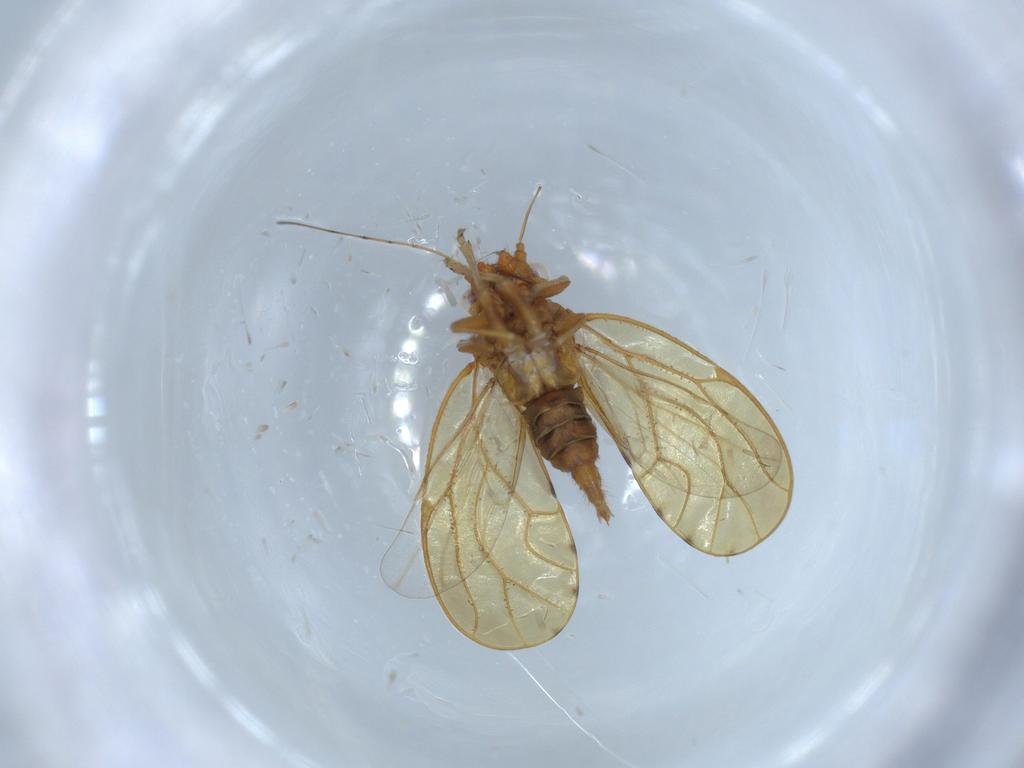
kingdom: Animalia
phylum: Arthropoda
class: Insecta
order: Hemiptera
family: Psylloidea_incertae_sedis
